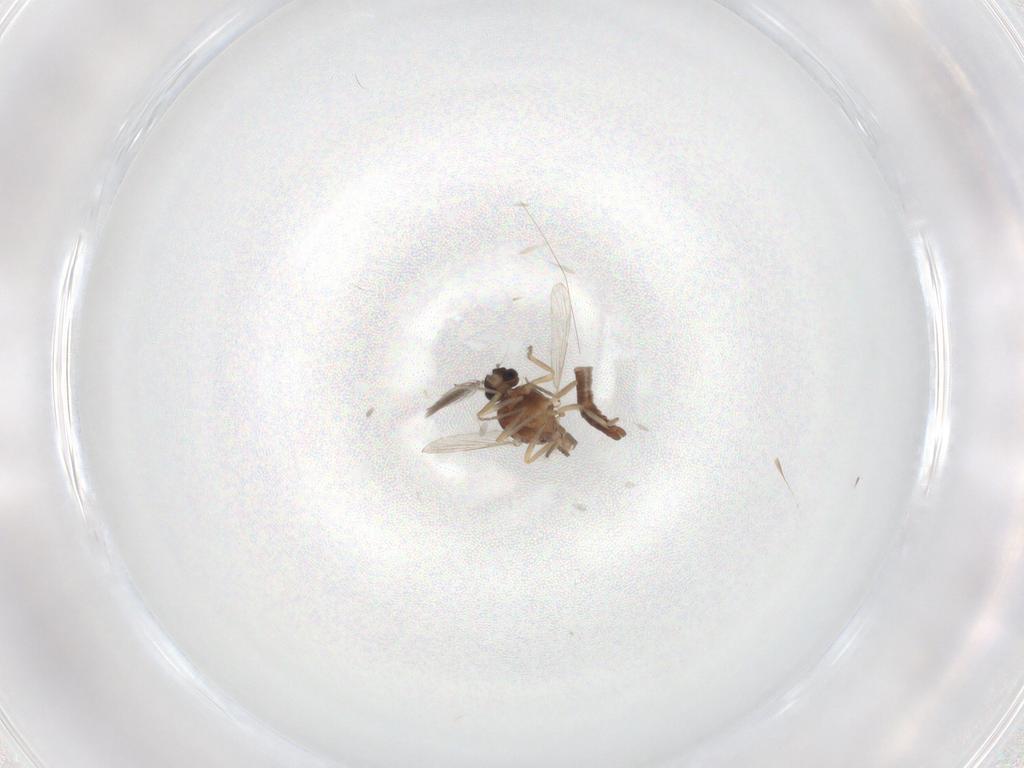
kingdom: Animalia
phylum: Arthropoda
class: Insecta
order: Diptera
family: Ceratopogonidae
